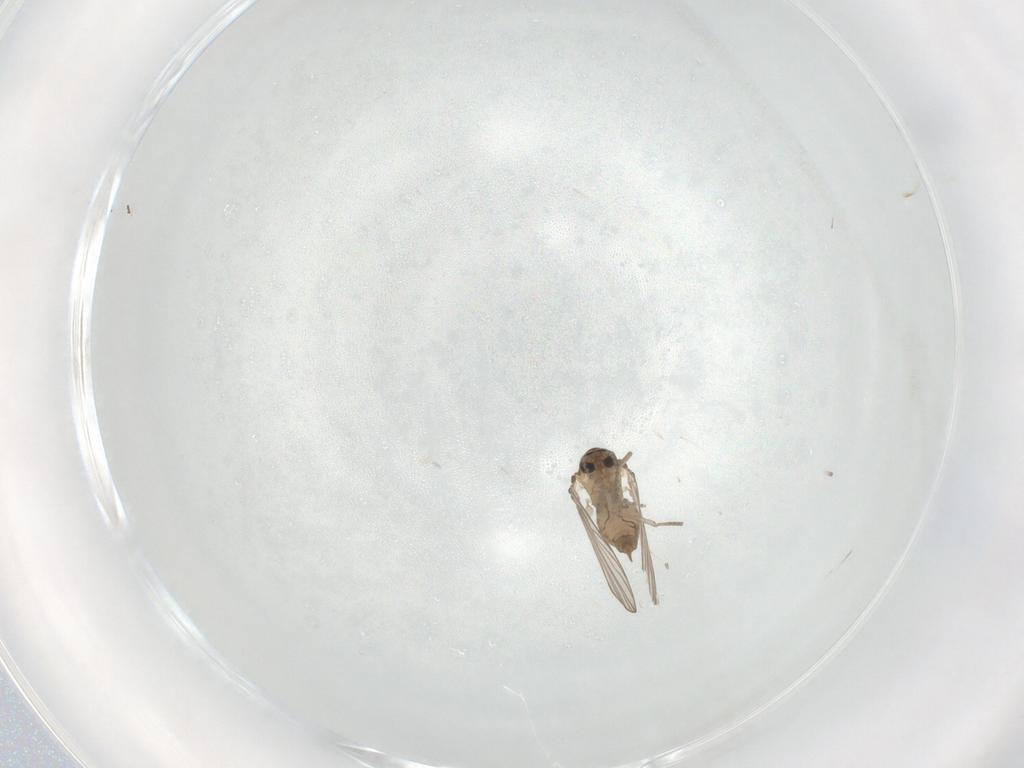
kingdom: Animalia
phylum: Arthropoda
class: Insecta
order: Diptera
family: Psychodidae
